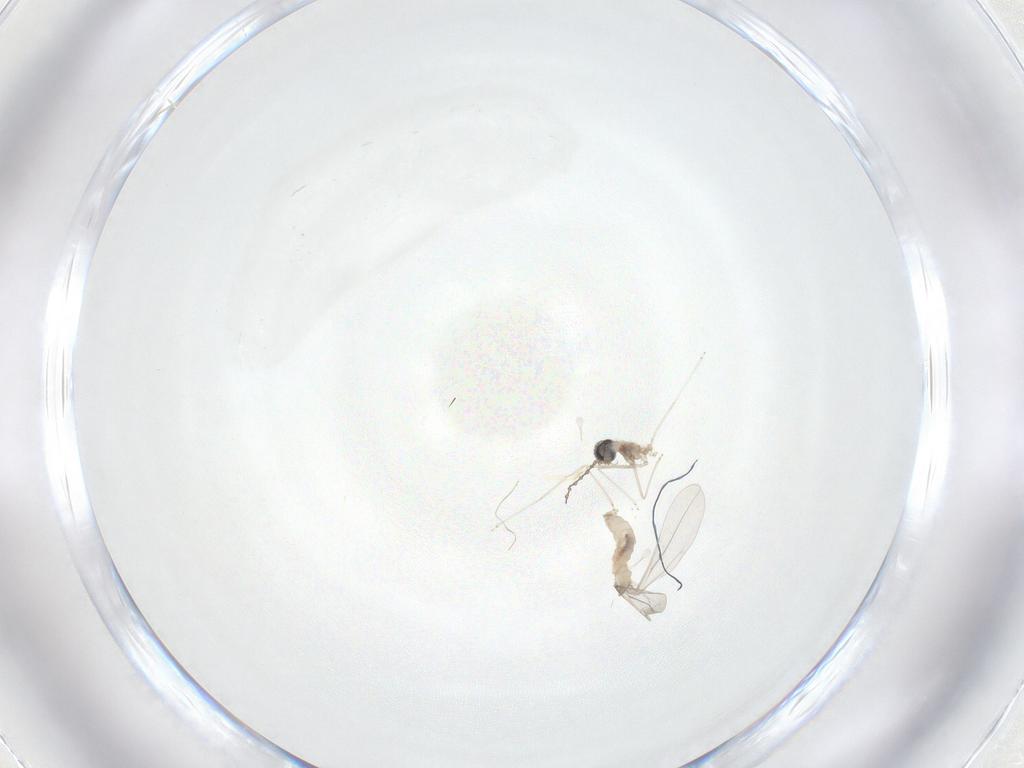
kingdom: Animalia
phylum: Arthropoda
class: Insecta
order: Diptera
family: Cecidomyiidae
